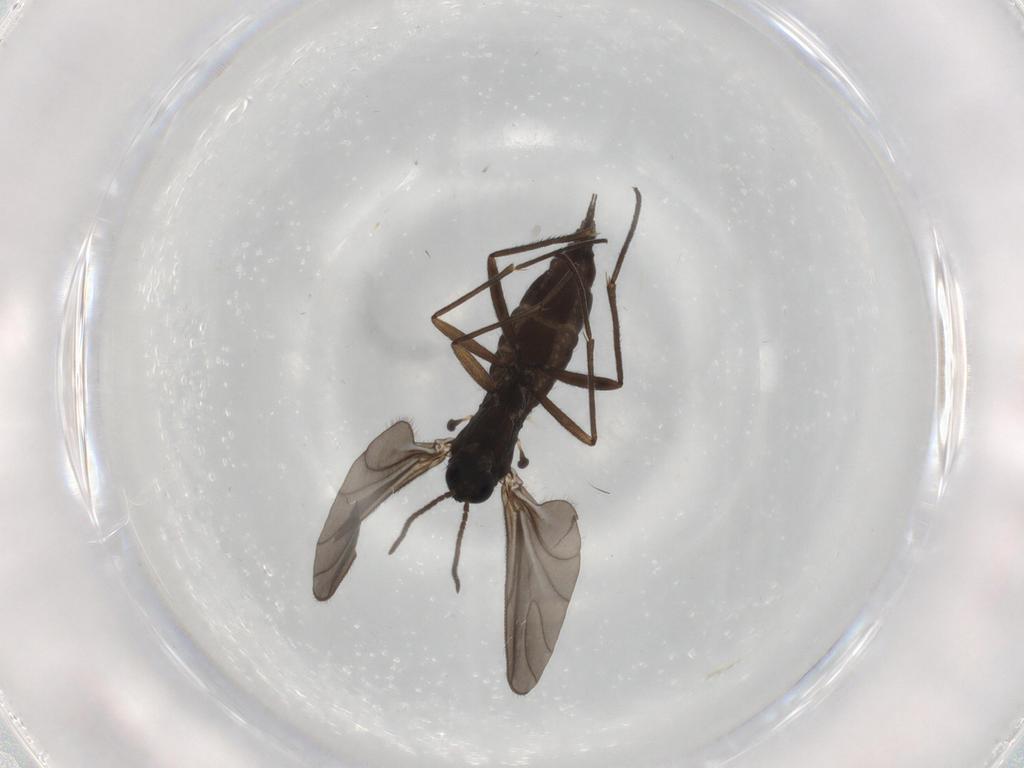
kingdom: Animalia
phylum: Arthropoda
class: Insecta
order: Diptera
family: Sciaridae
